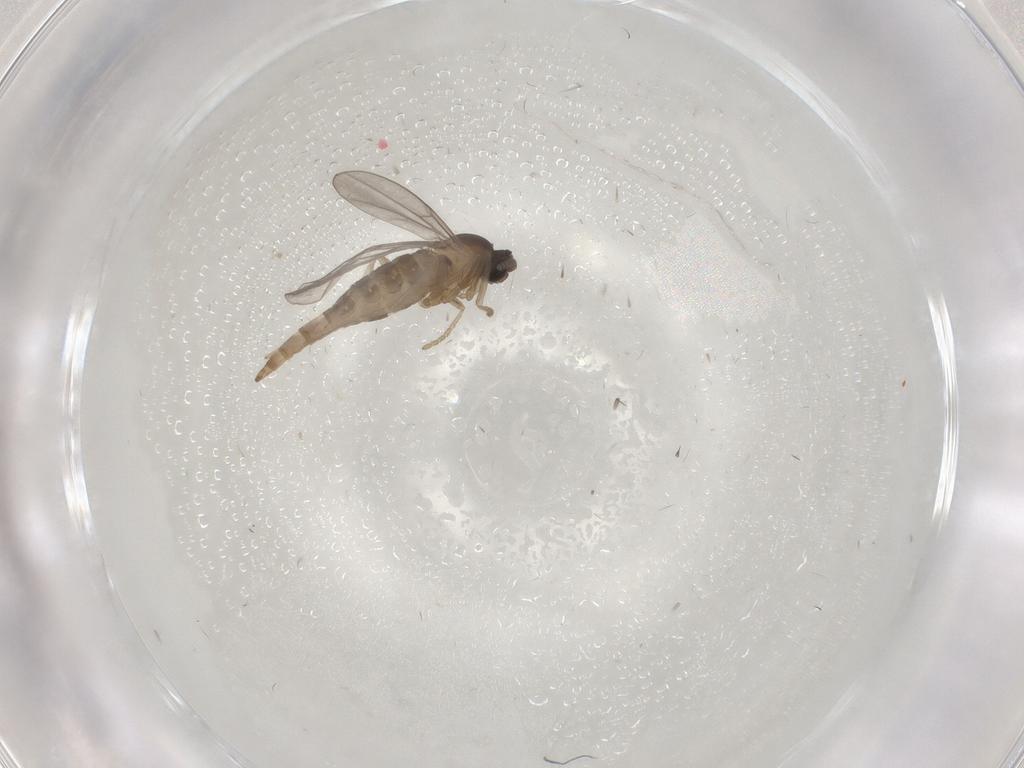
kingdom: Animalia
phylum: Arthropoda
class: Insecta
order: Diptera
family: Cecidomyiidae
